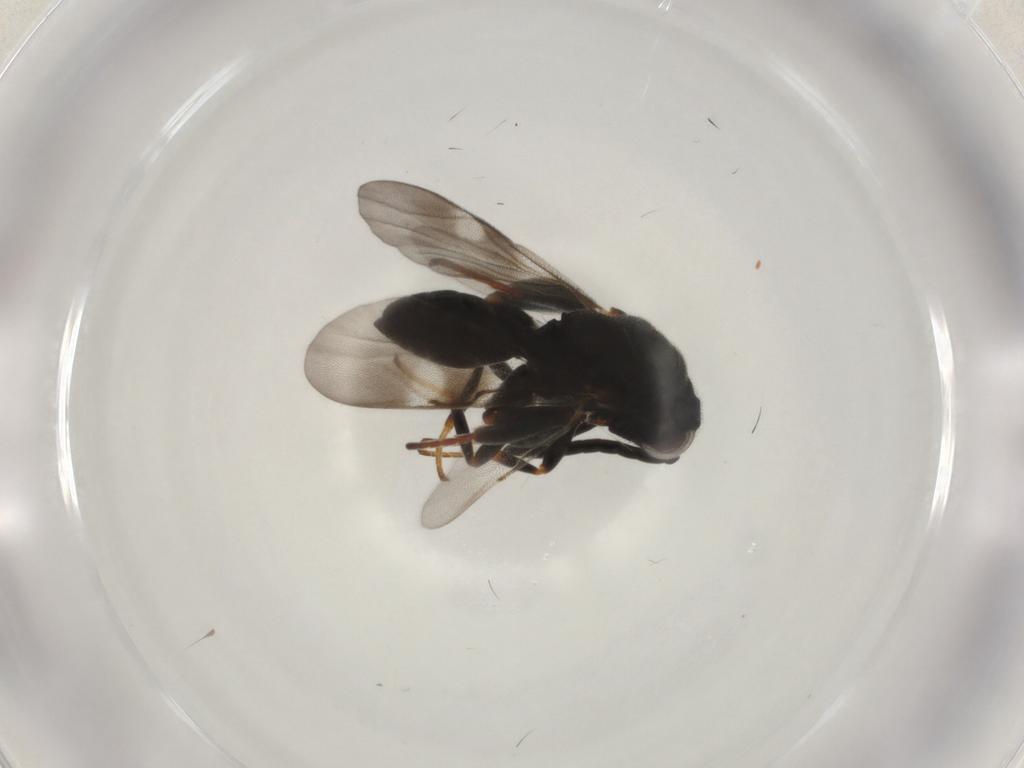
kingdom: Animalia
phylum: Arthropoda
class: Insecta
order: Hymenoptera
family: Chalcididae
